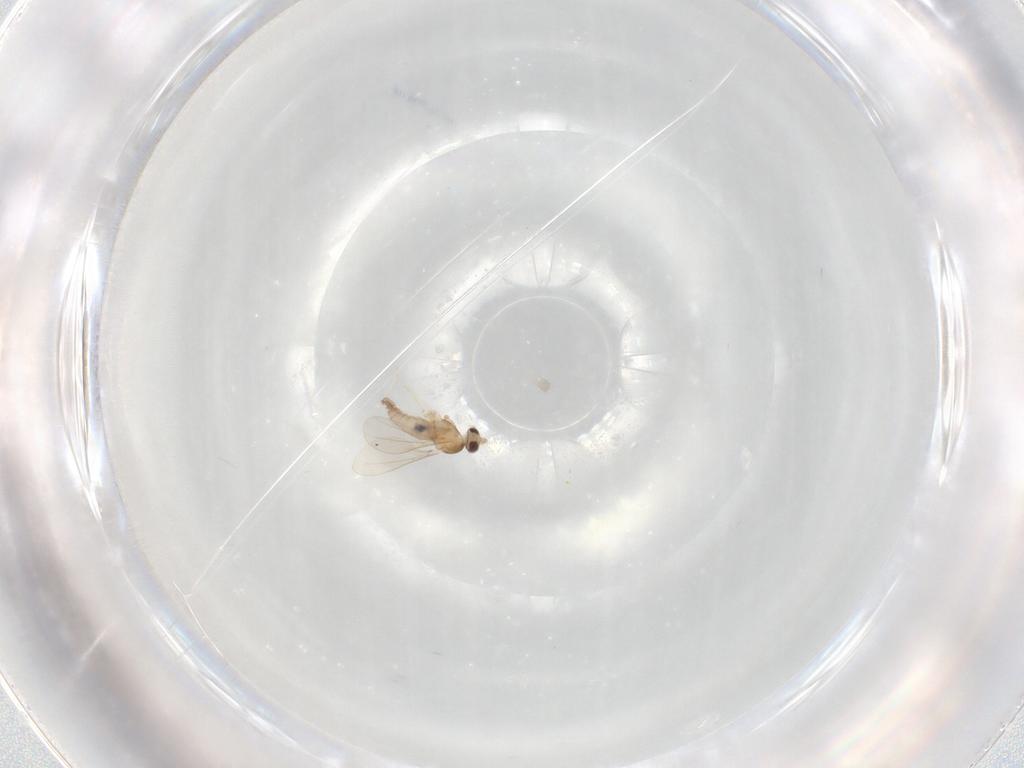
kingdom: Animalia
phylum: Arthropoda
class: Insecta
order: Diptera
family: Cecidomyiidae
